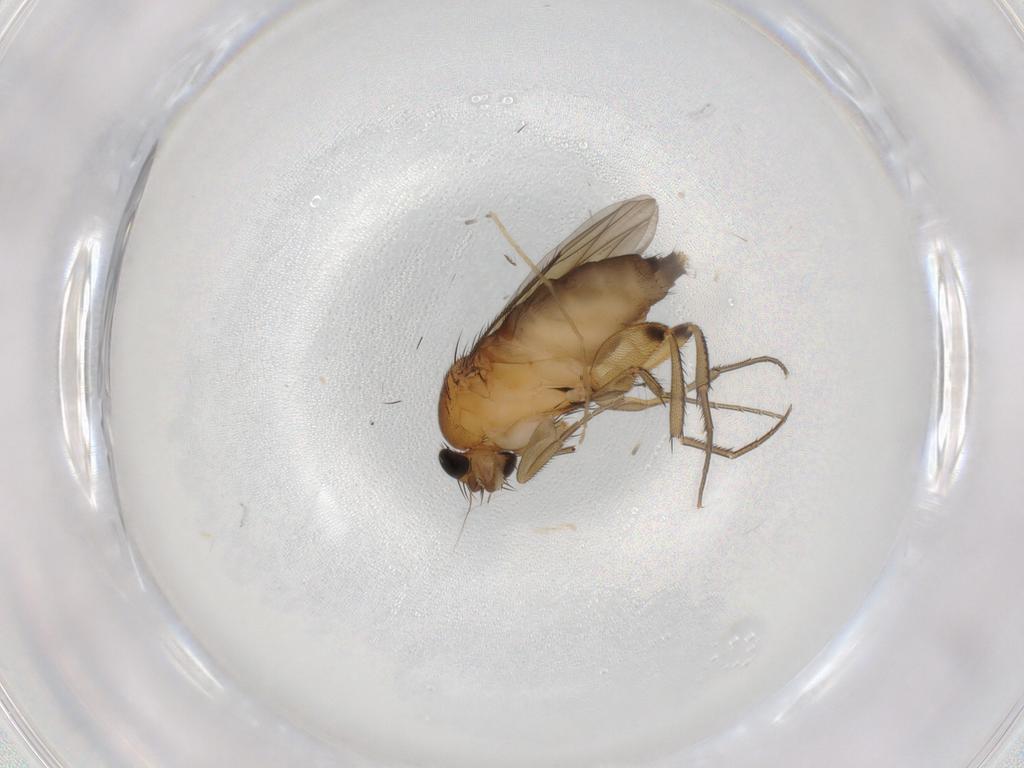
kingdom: Animalia
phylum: Arthropoda
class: Insecta
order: Diptera
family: Phoridae
